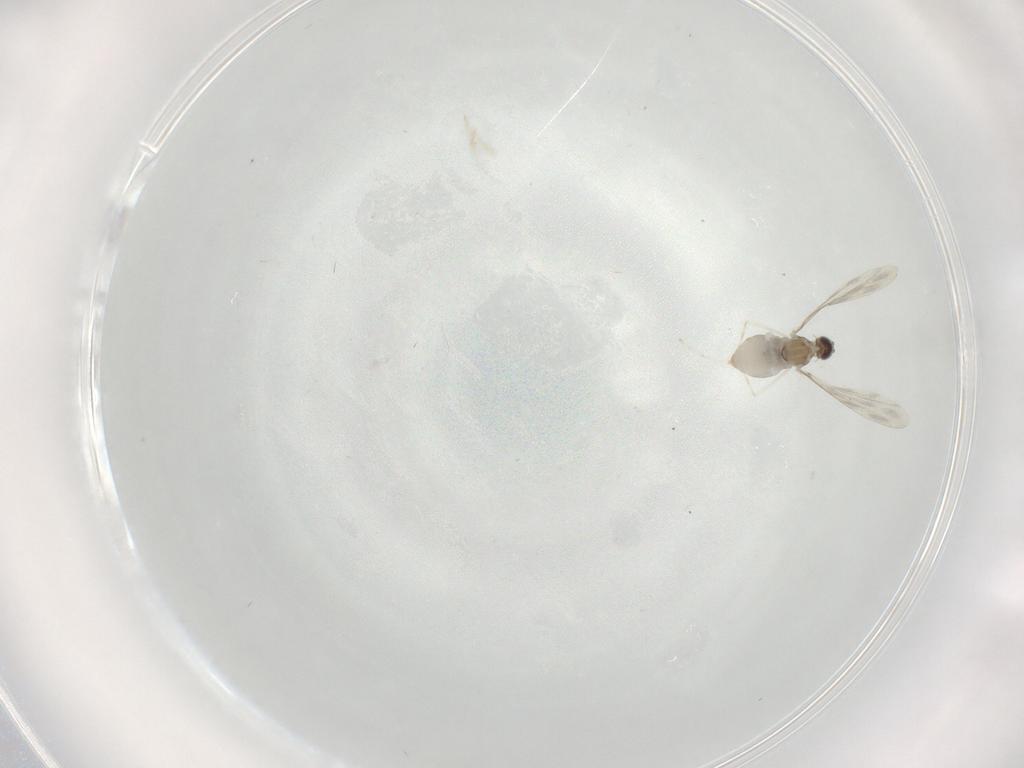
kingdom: Animalia
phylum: Arthropoda
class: Insecta
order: Diptera
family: Cecidomyiidae
